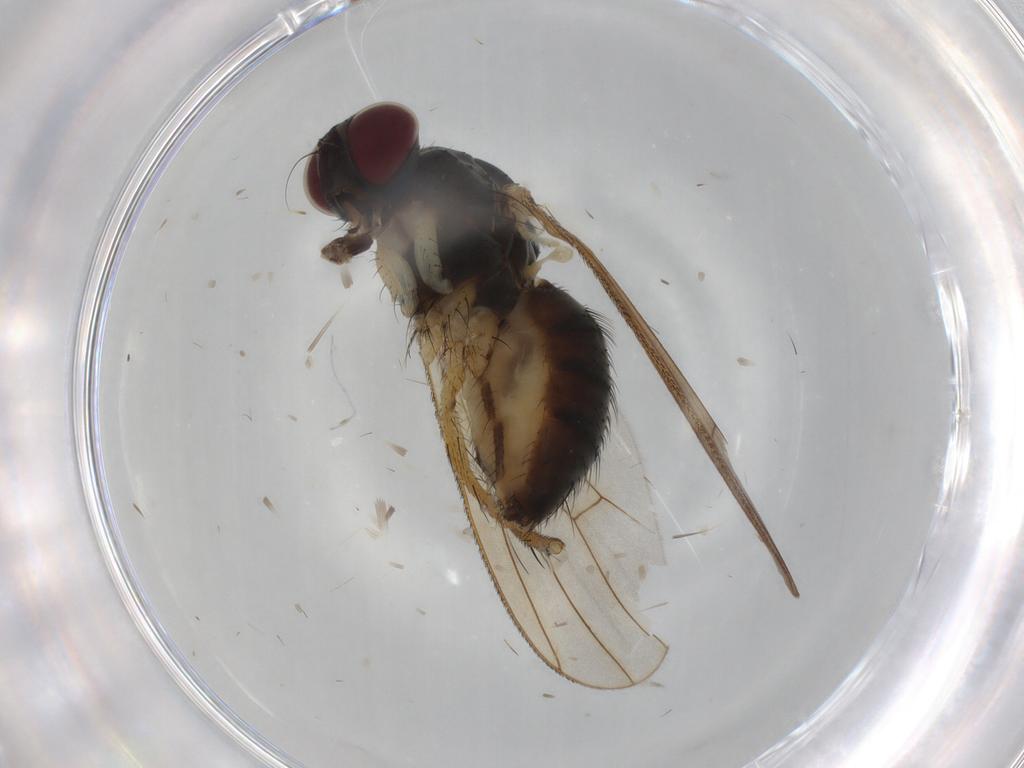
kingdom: Animalia
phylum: Arthropoda
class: Insecta
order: Diptera
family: Muscidae
